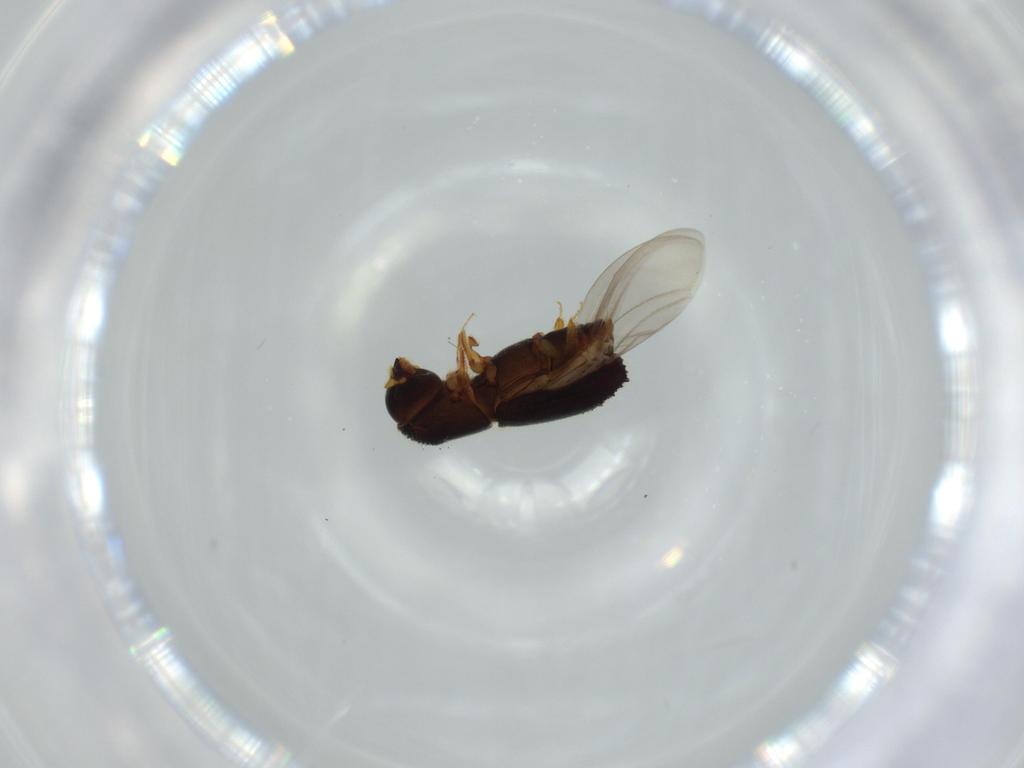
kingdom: Animalia
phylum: Arthropoda
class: Insecta
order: Coleoptera
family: Curculionidae
